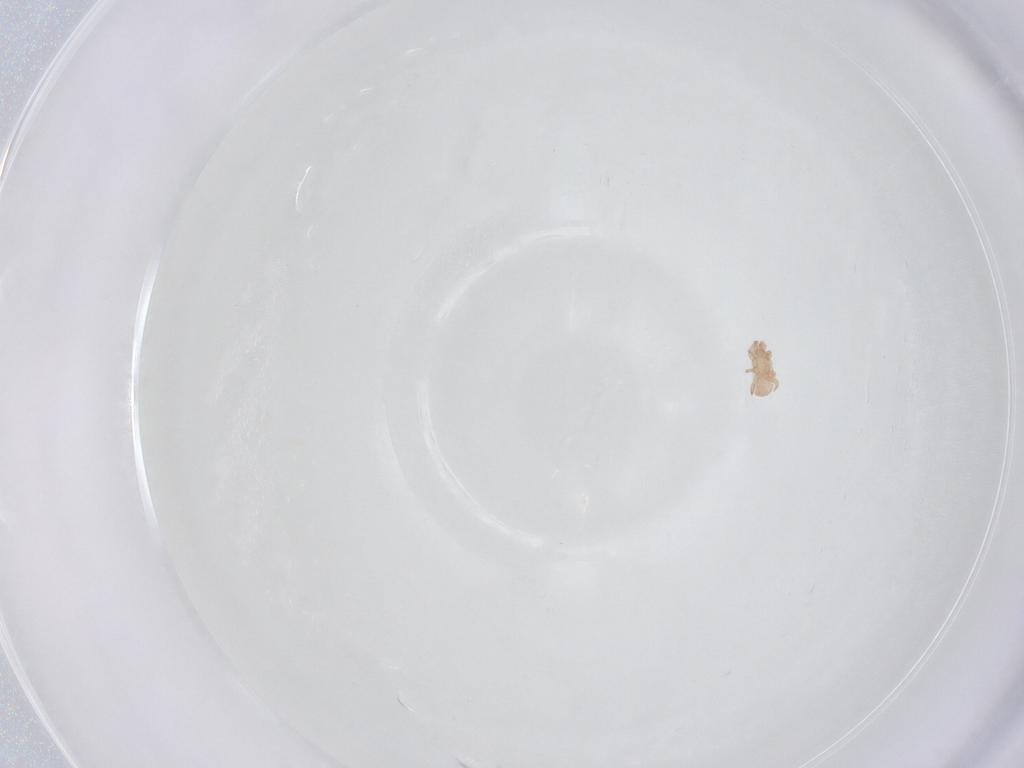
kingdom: Animalia
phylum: Arthropoda
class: Arachnida
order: Mesostigmata
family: Digamasellidae
